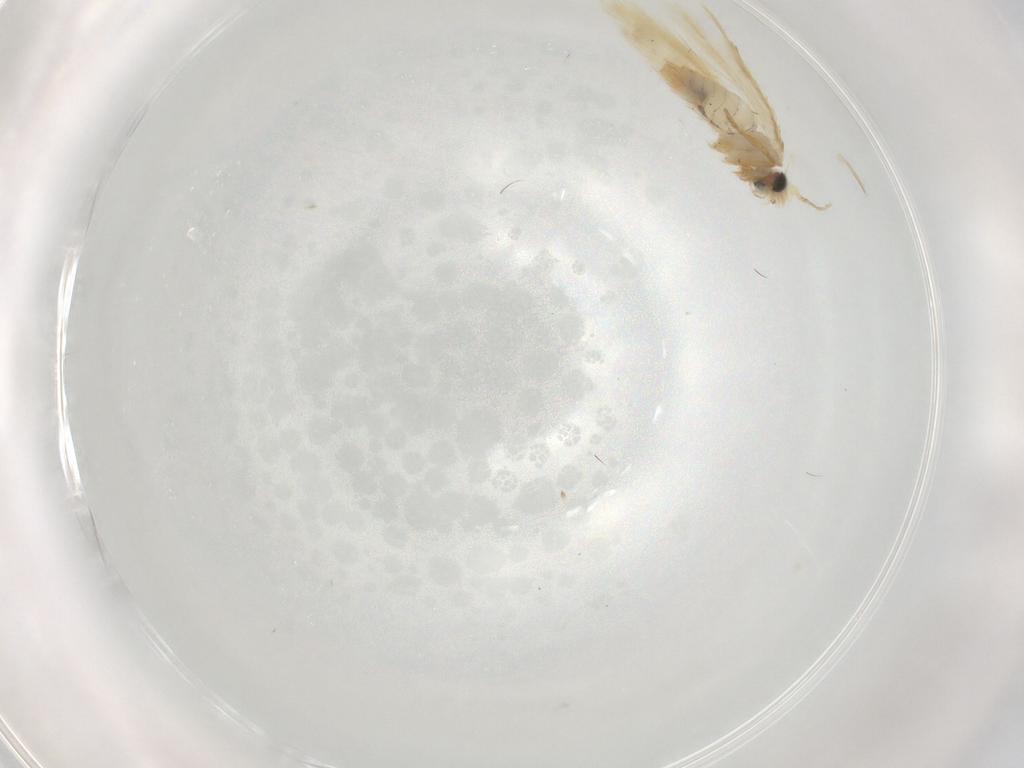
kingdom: Animalia
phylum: Arthropoda
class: Insecta
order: Lepidoptera
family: Nepticulidae
